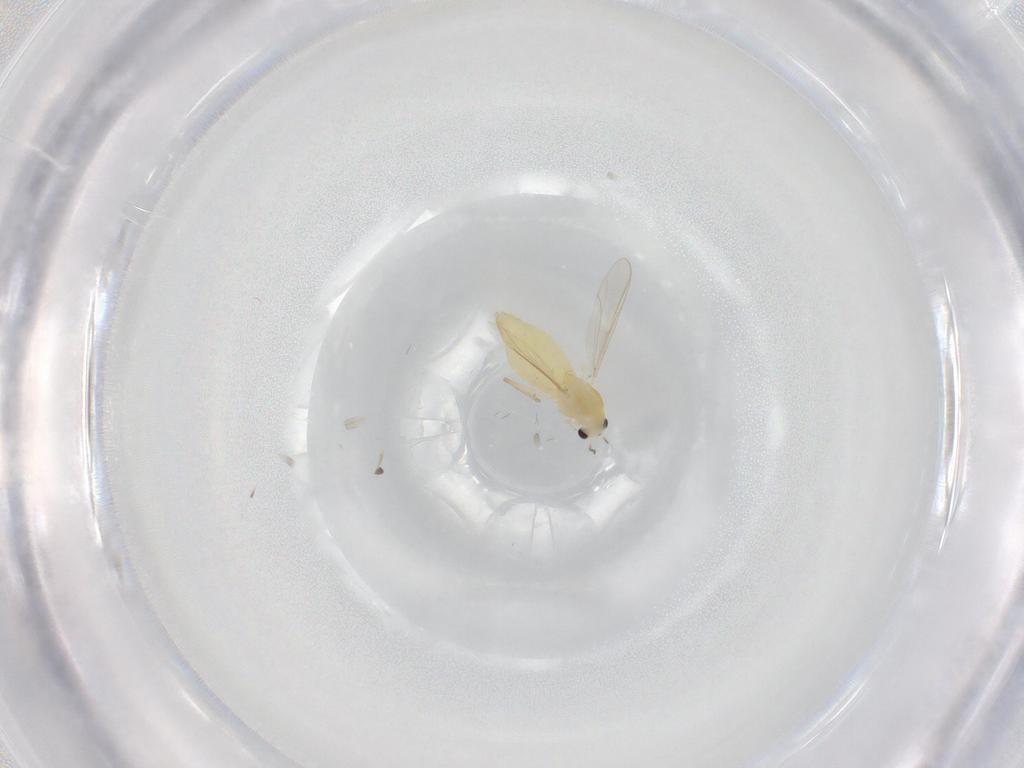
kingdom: Animalia
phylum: Arthropoda
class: Insecta
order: Diptera
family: Chironomidae
